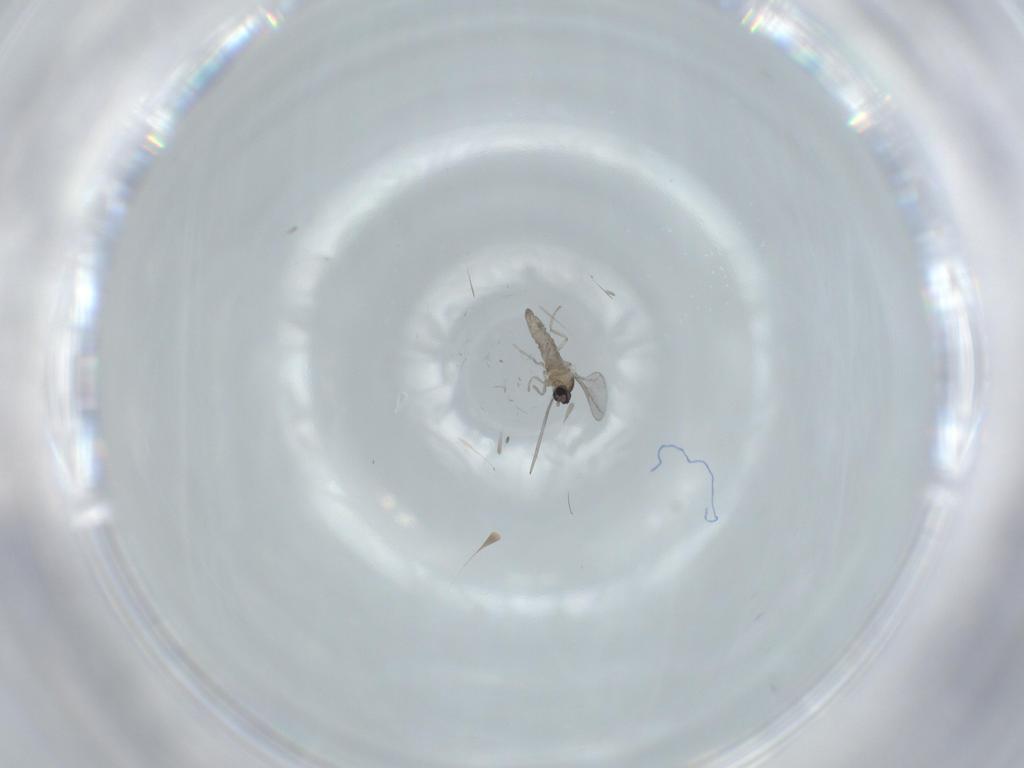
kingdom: Animalia
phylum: Arthropoda
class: Insecta
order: Diptera
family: Cecidomyiidae
